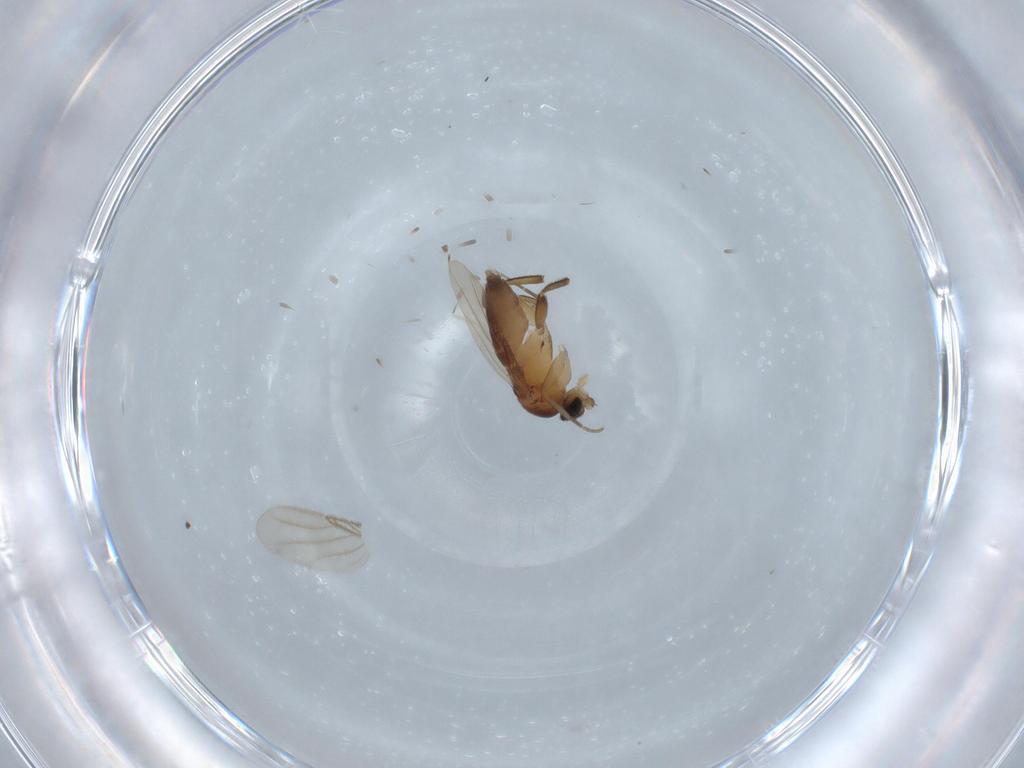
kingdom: Animalia
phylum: Arthropoda
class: Insecta
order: Diptera
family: Phoridae
